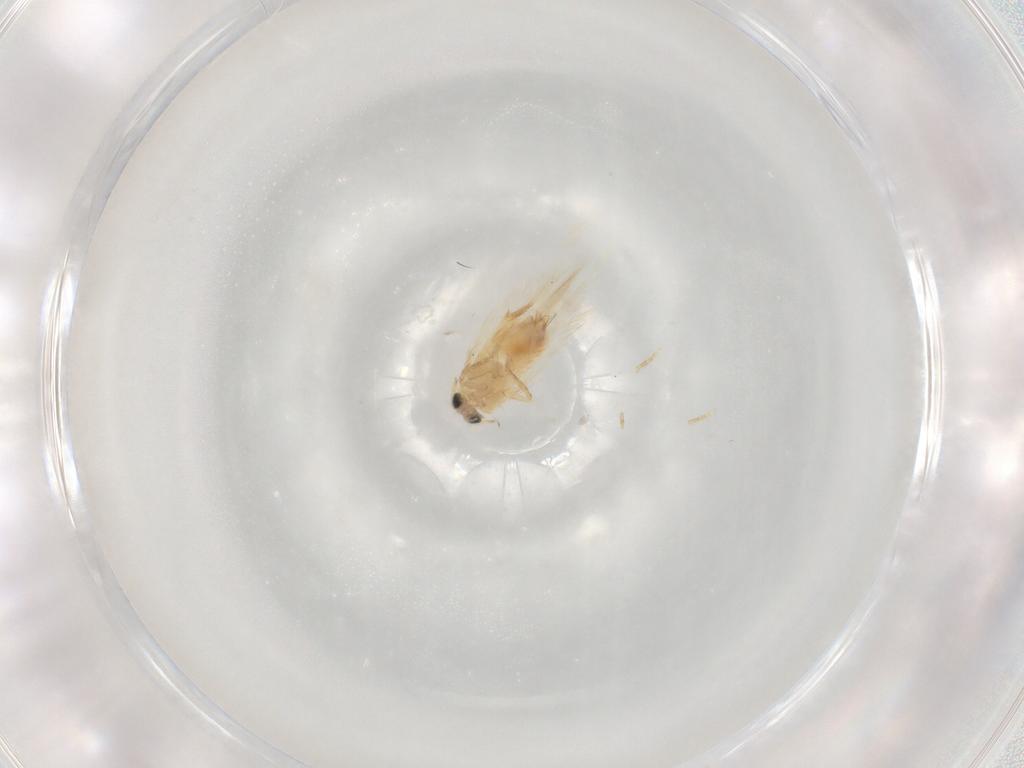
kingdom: Animalia
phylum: Arthropoda
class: Insecta
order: Lepidoptera
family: Nepticulidae
